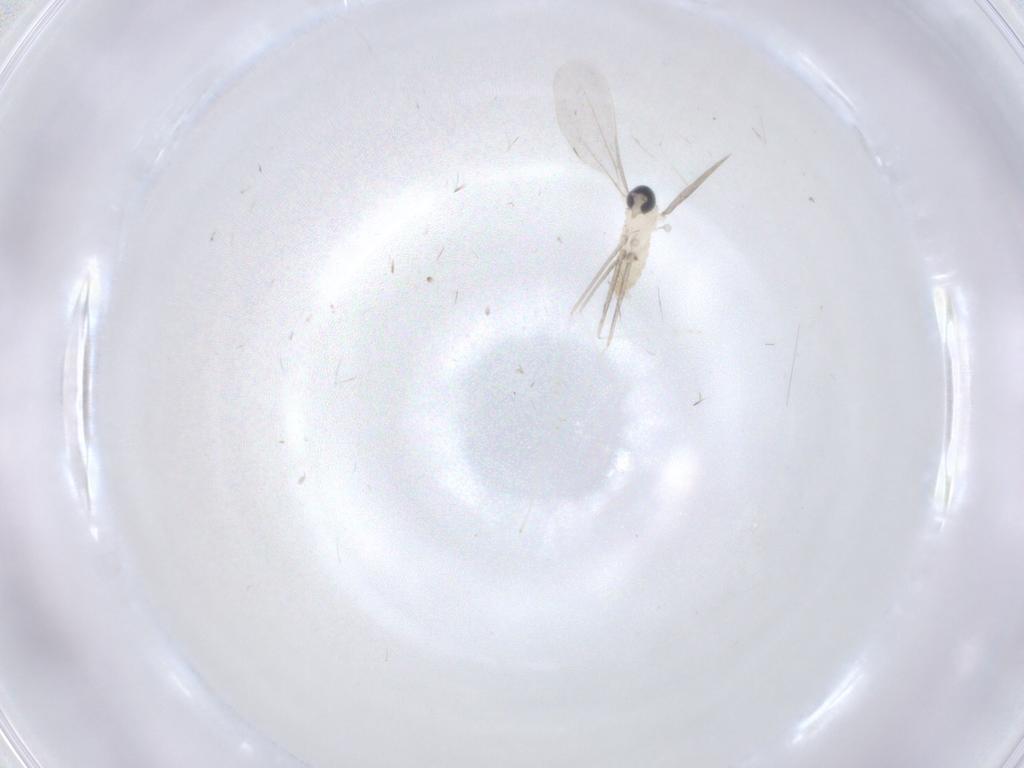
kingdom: Animalia
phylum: Arthropoda
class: Insecta
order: Diptera
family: Cecidomyiidae
